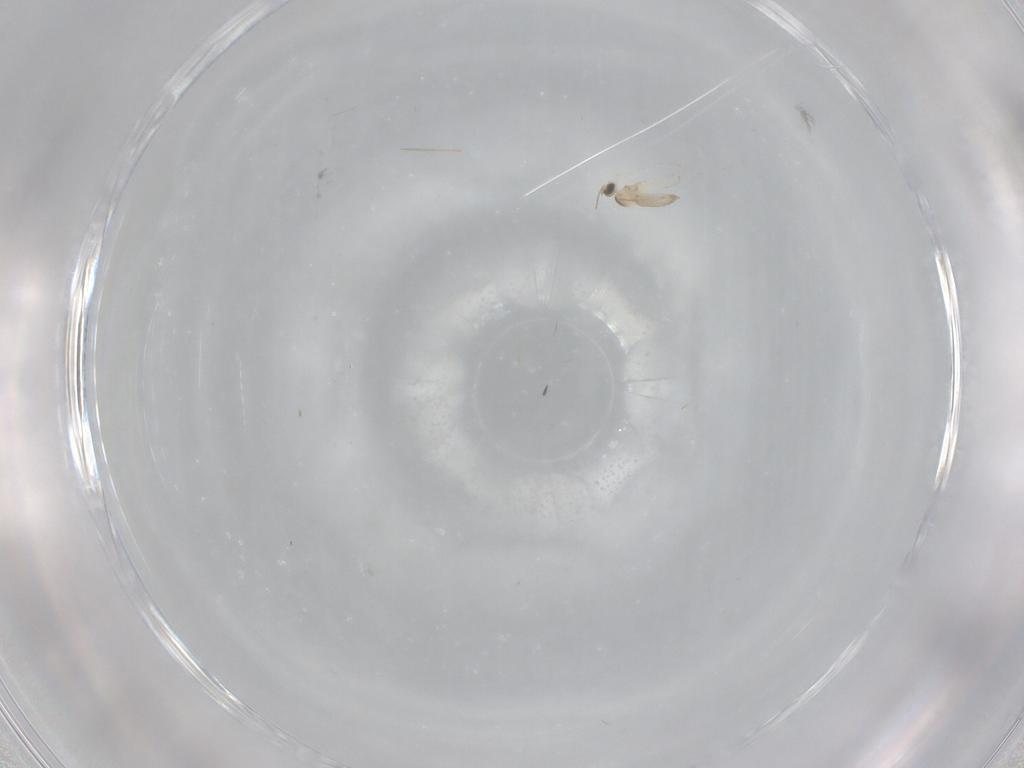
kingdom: Animalia
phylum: Arthropoda
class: Insecta
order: Diptera
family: Cecidomyiidae
